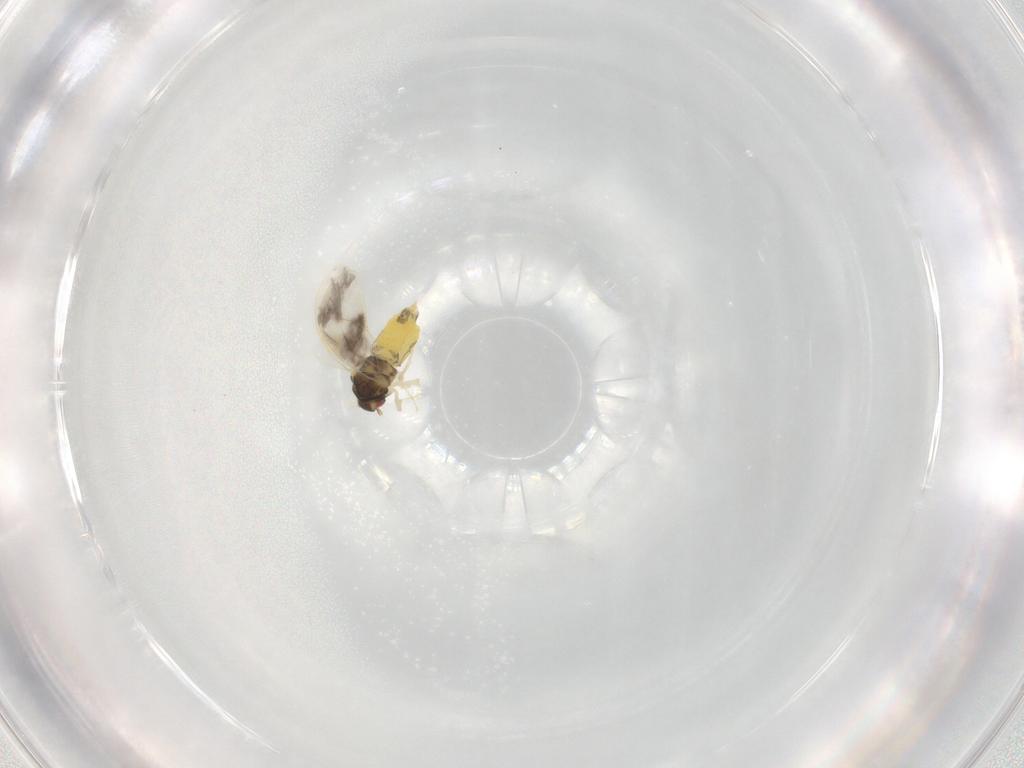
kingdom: Animalia
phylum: Arthropoda
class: Insecta
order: Hemiptera
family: Aleyrodidae
